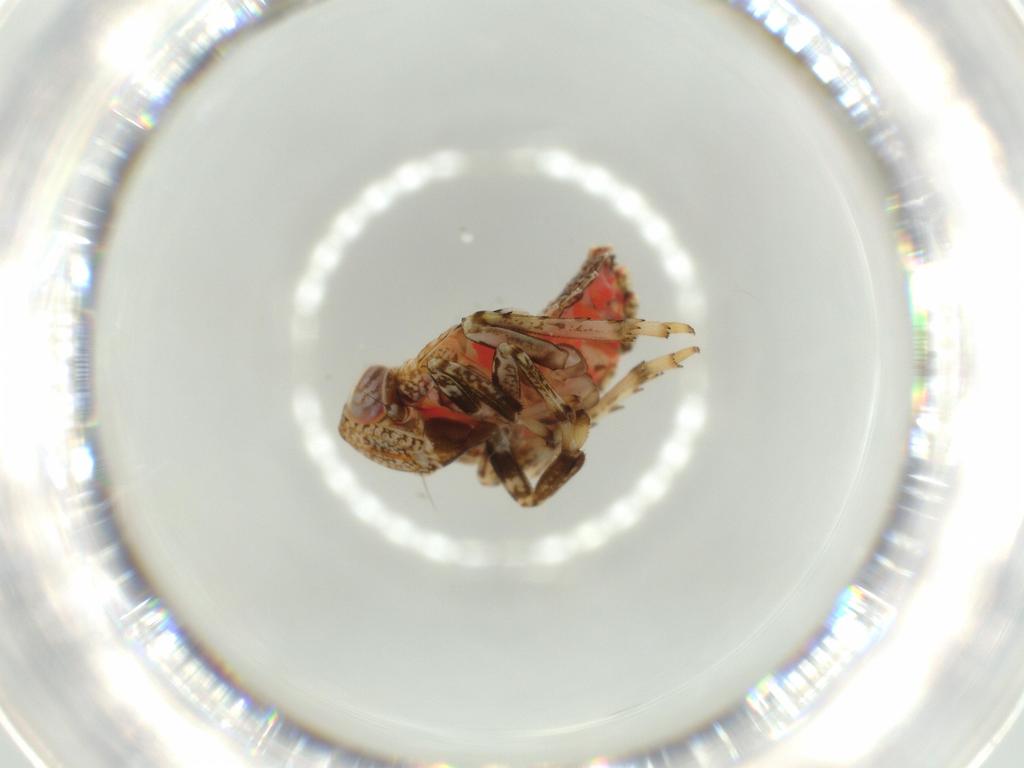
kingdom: Animalia
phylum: Arthropoda
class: Insecta
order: Hemiptera
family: Issidae
